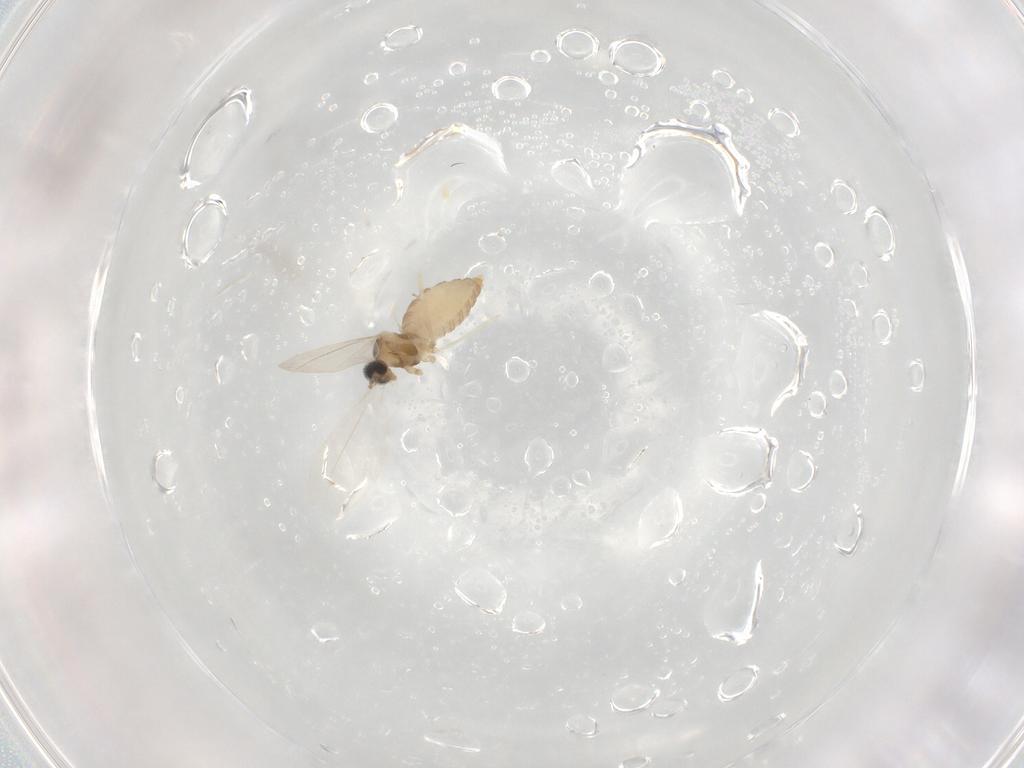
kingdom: Animalia
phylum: Arthropoda
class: Insecta
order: Diptera
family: Cecidomyiidae
